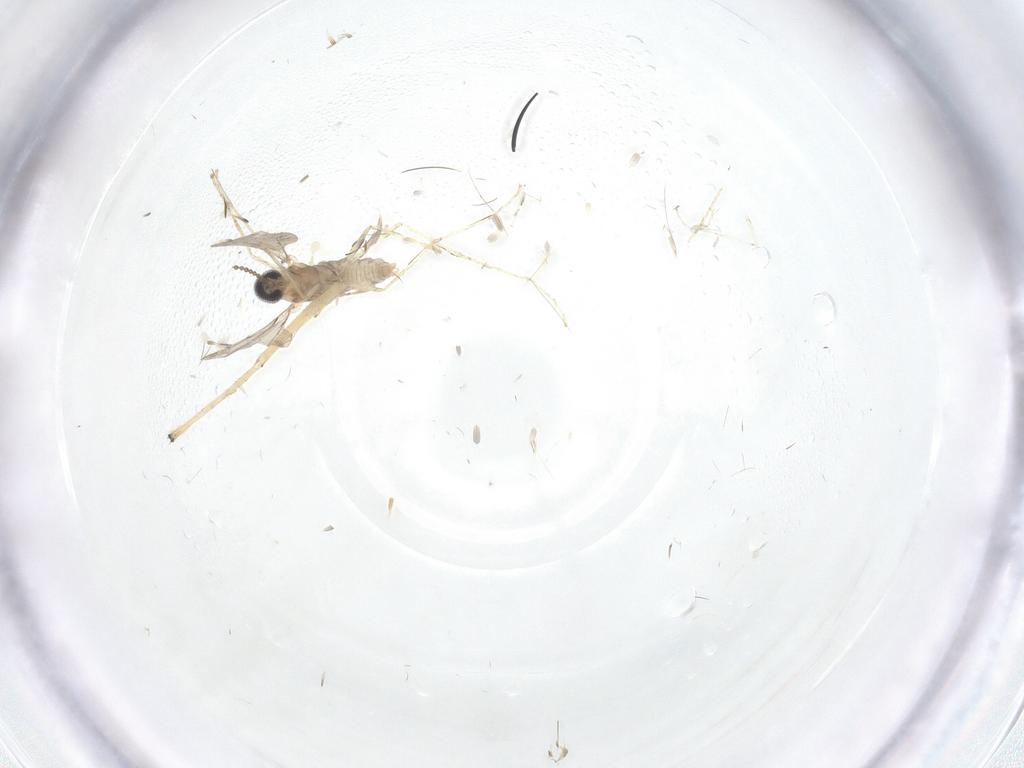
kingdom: Animalia
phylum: Arthropoda
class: Insecta
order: Diptera
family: Cecidomyiidae
